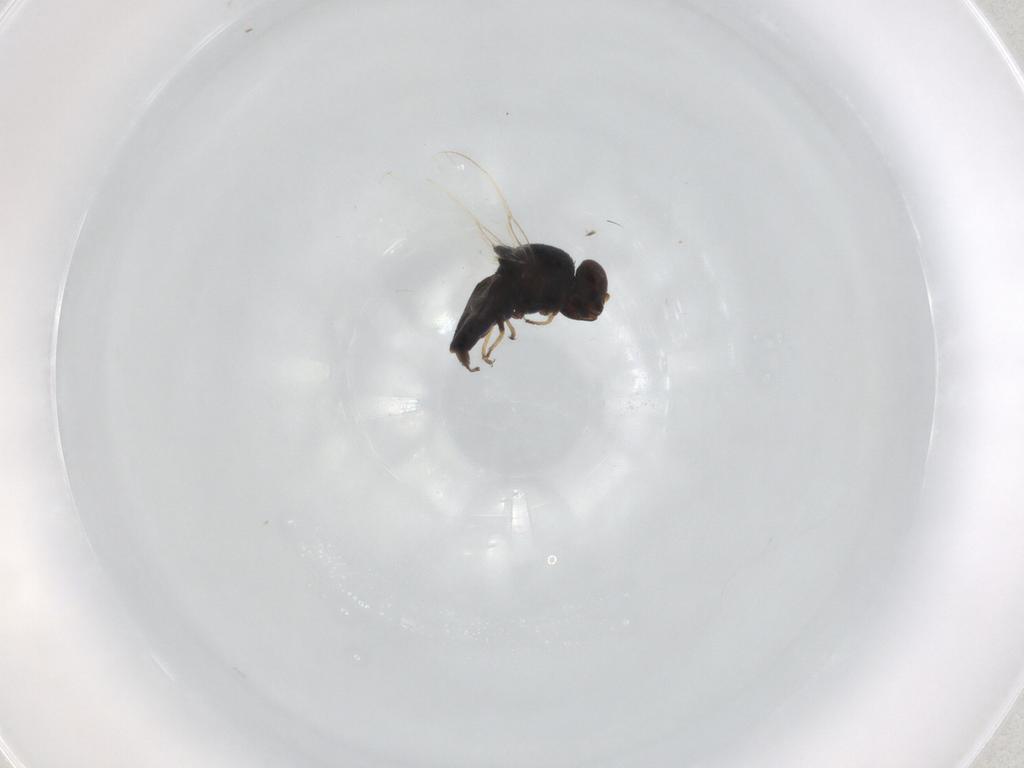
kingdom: Animalia
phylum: Arthropoda
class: Insecta
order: Diptera
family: Chloropidae
